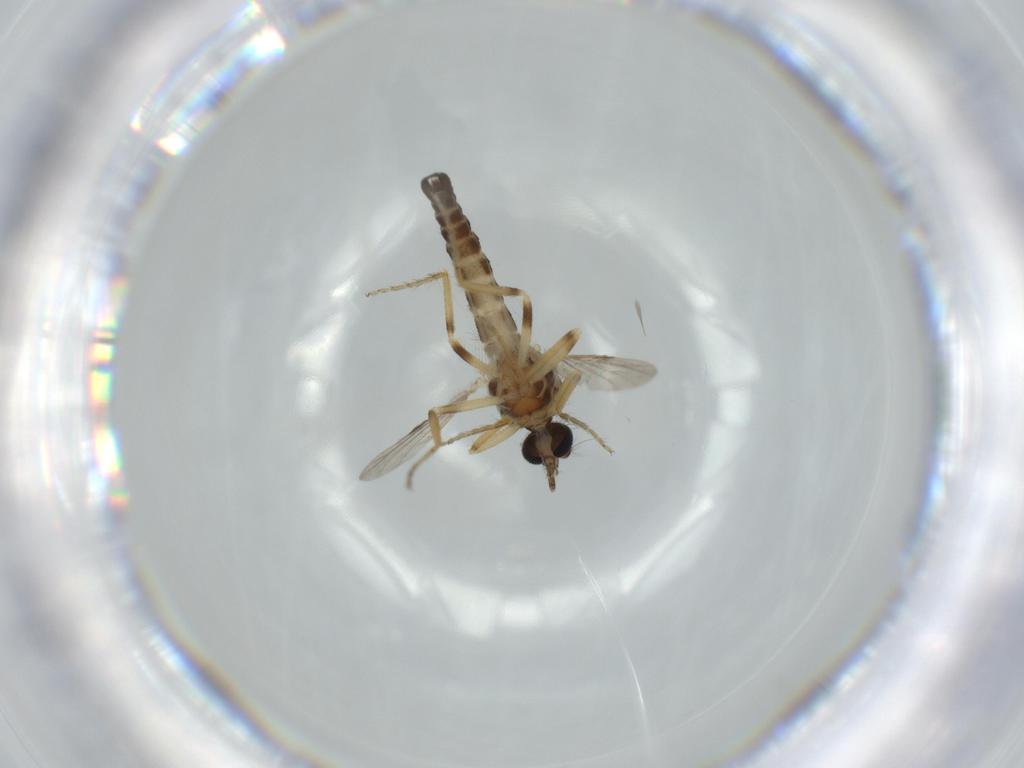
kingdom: Animalia
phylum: Arthropoda
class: Insecta
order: Diptera
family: Ceratopogonidae
